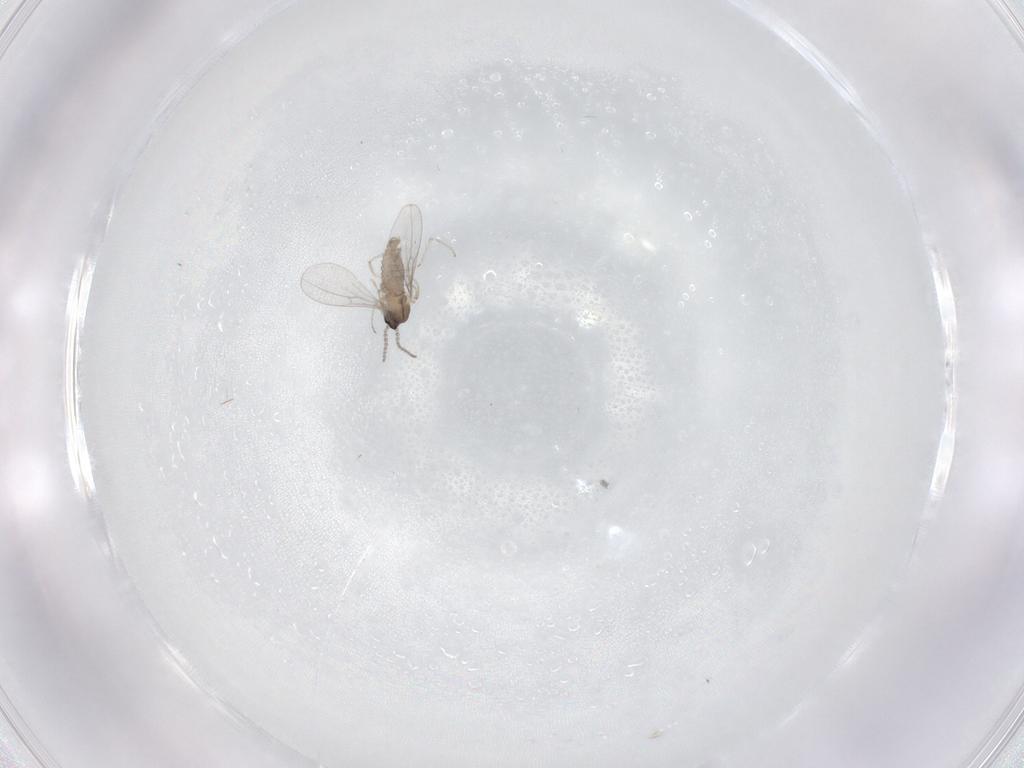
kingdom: Animalia
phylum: Arthropoda
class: Insecta
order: Diptera
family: Cecidomyiidae
